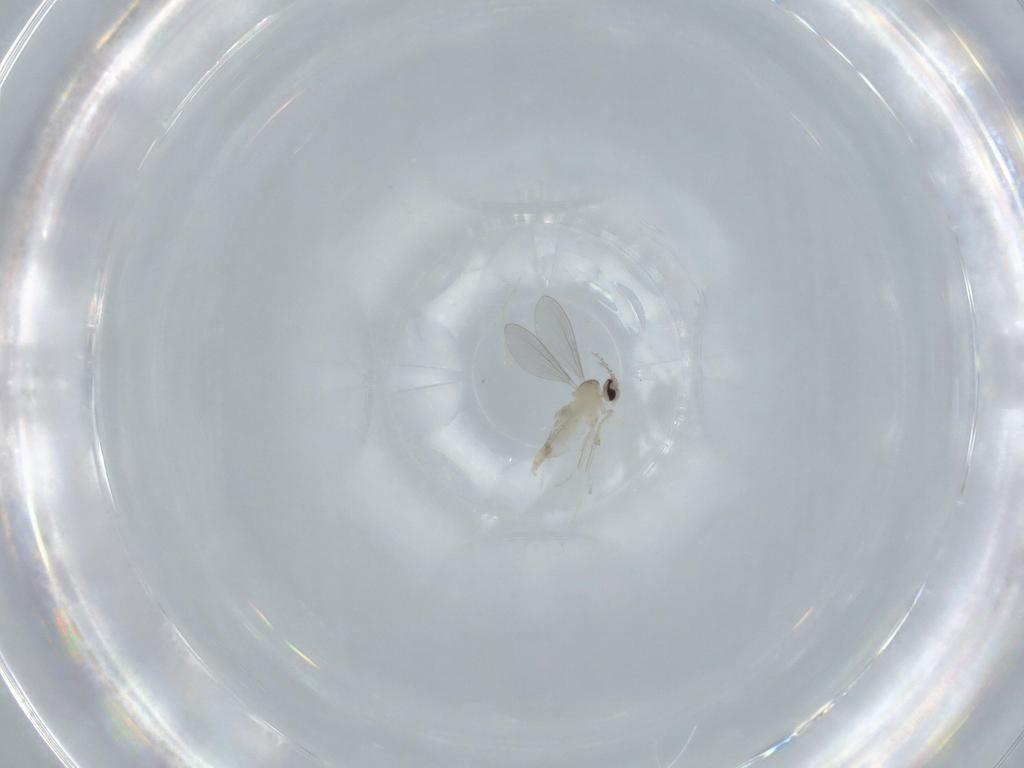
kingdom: Animalia
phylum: Arthropoda
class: Insecta
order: Diptera
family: Cecidomyiidae
